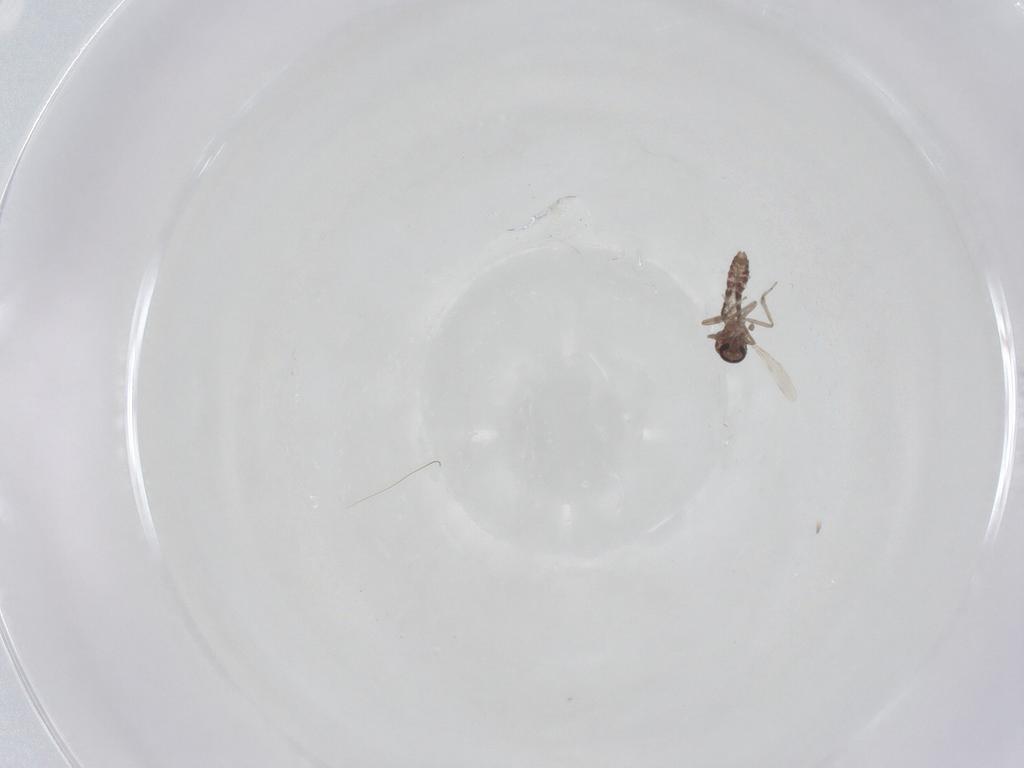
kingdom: Animalia
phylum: Arthropoda
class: Insecta
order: Diptera
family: Ceratopogonidae
